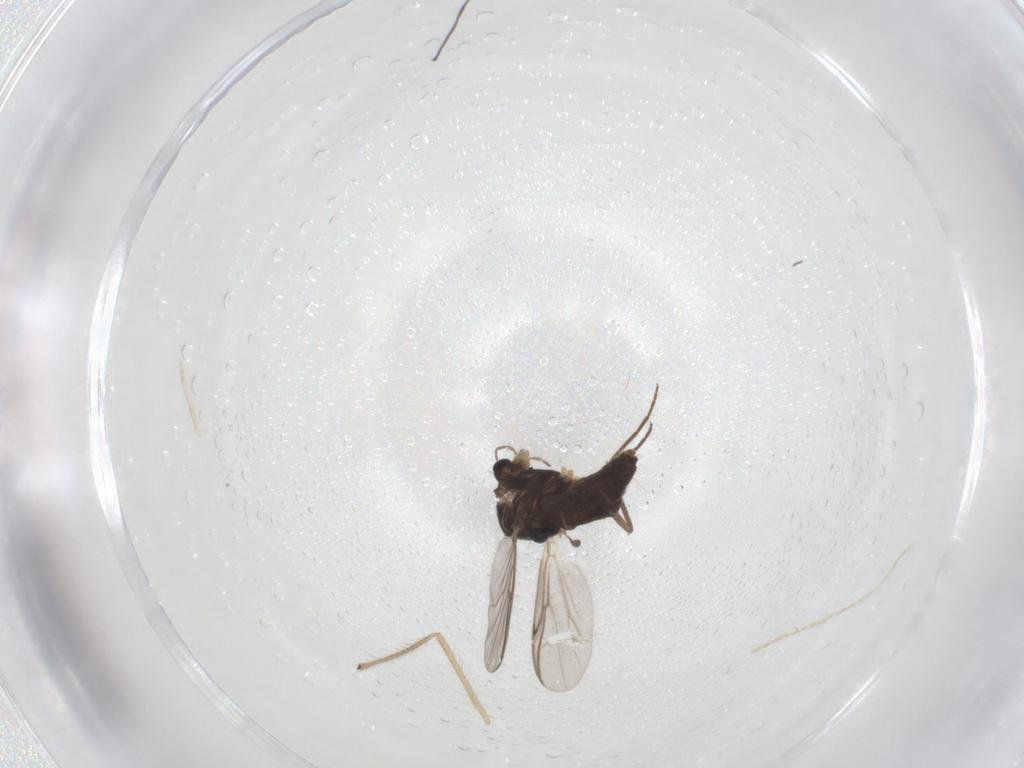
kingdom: Animalia
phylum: Arthropoda
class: Insecta
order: Diptera
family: Chironomidae
